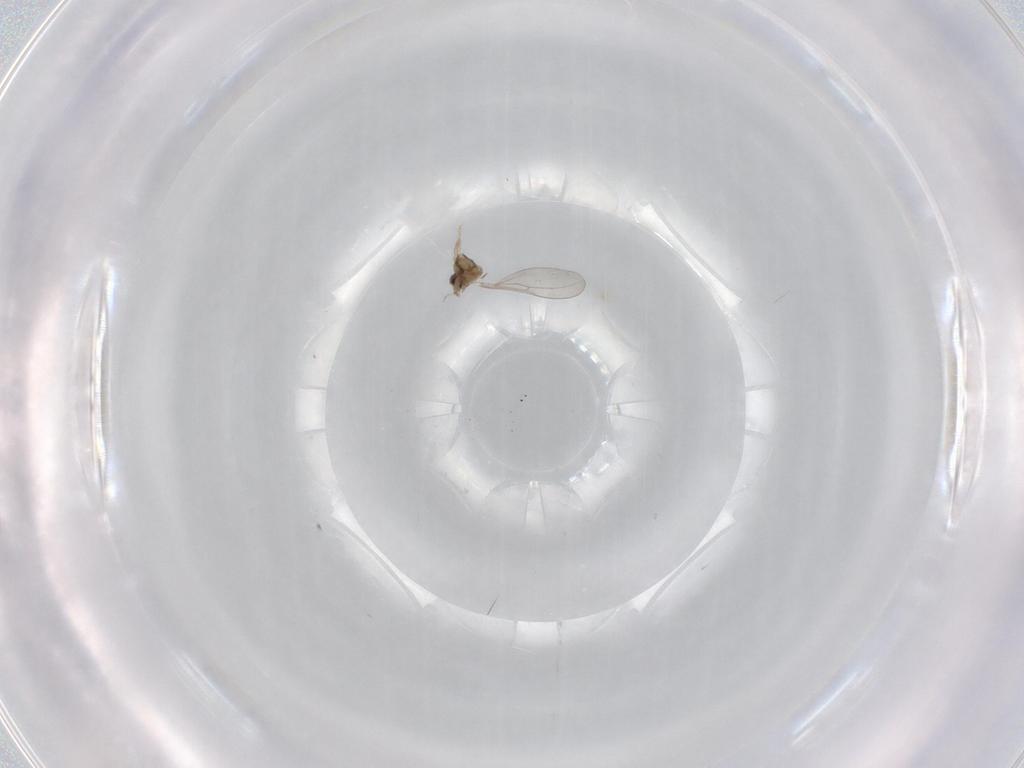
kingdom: Animalia
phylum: Arthropoda
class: Insecta
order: Diptera
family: Cecidomyiidae
